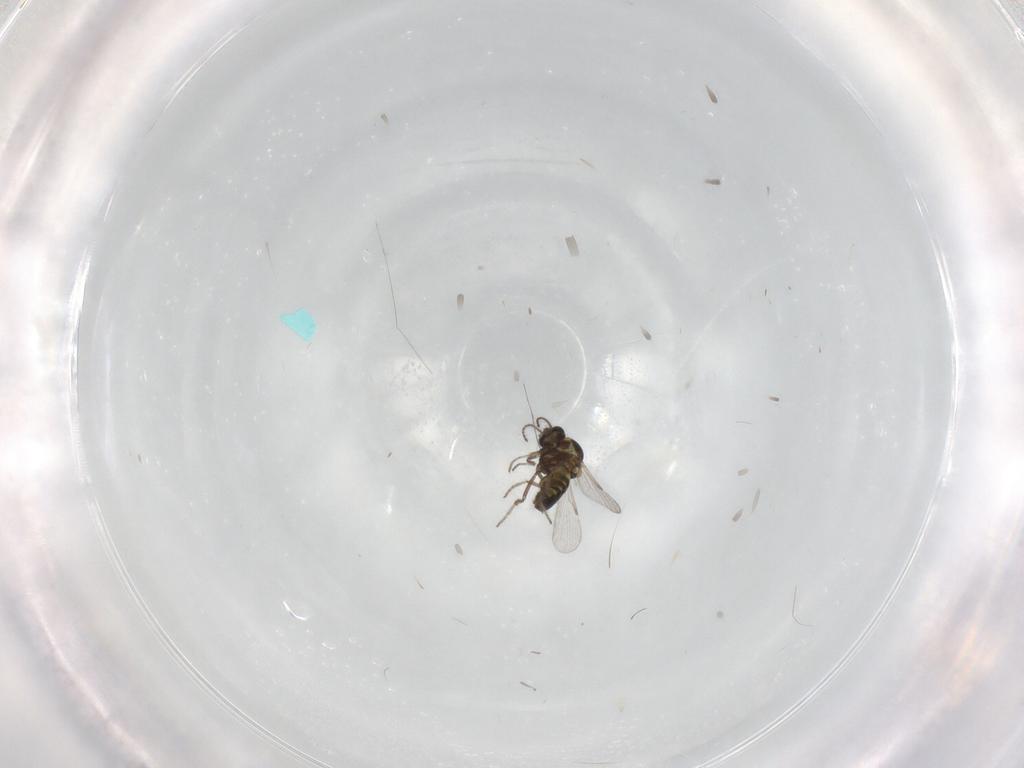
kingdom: Animalia
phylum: Arthropoda
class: Insecta
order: Diptera
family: Ceratopogonidae
